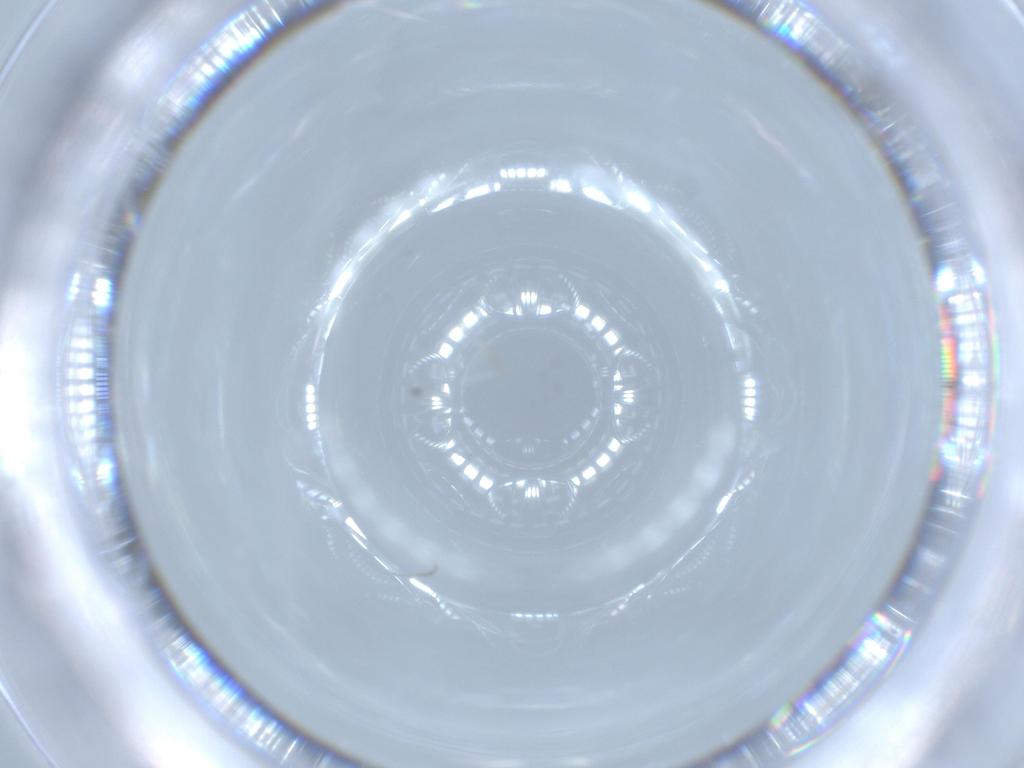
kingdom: Animalia
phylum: Arthropoda
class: Insecta
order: Diptera
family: Cecidomyiidae
